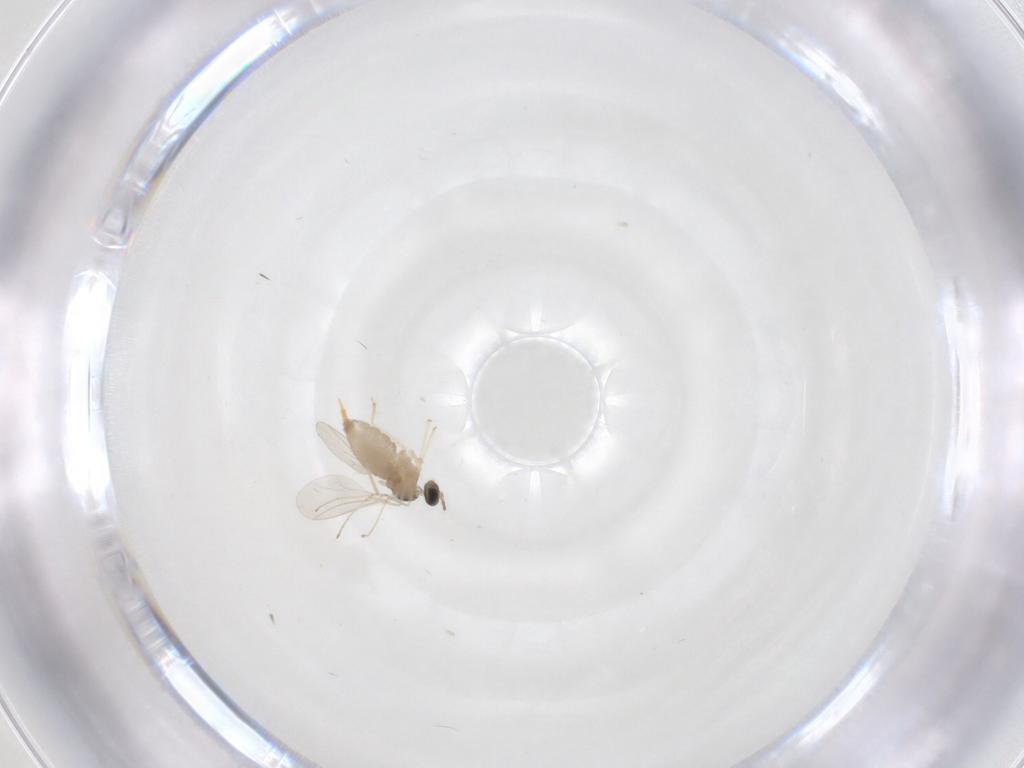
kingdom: Animalia
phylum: Arthropoda
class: Insecta
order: Diptera
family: Cecidomyiidae
